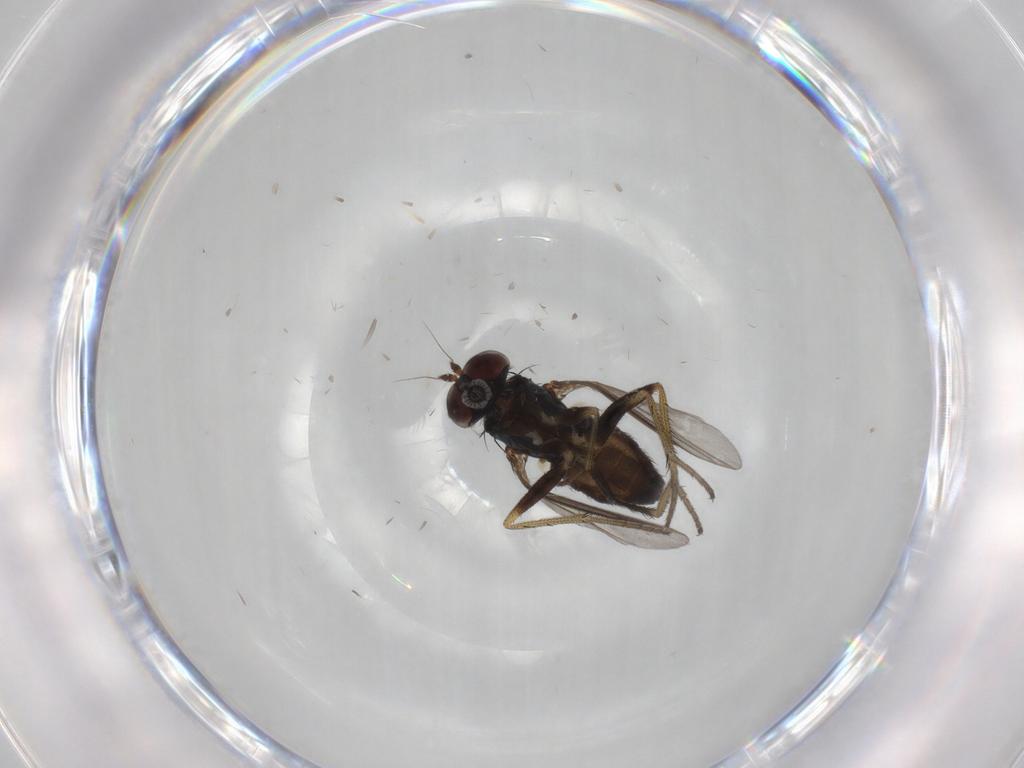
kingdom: Animalia
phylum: Arthropoda
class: Insecta
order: Diptera
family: Dolichopodidae
